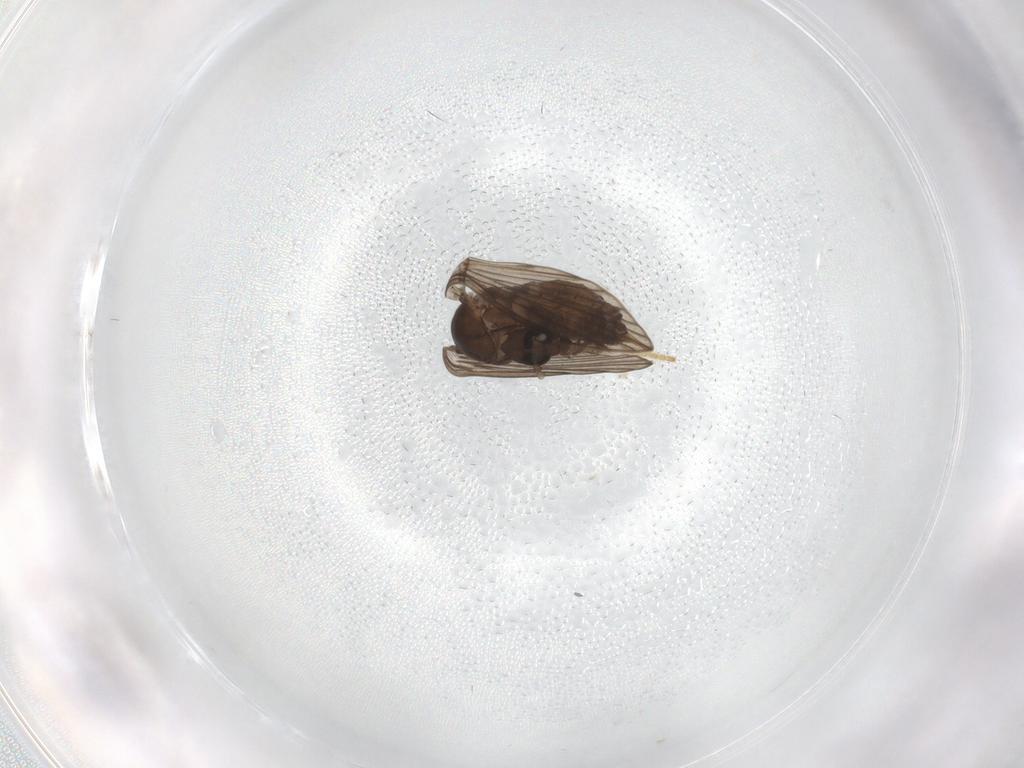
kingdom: Animalia
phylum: Arthropoda
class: Insecta
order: Diptera
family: Psychodidae
